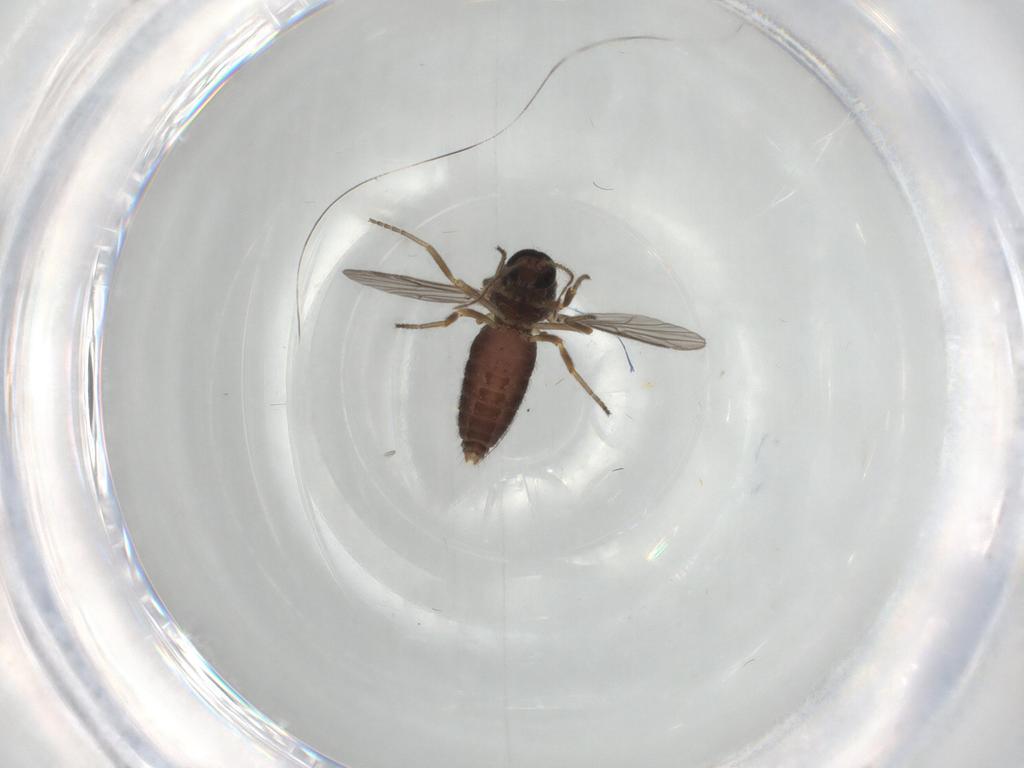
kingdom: Animalia
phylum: Arthropoda
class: Insecta
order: Diptera
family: Ceratopogonidae
